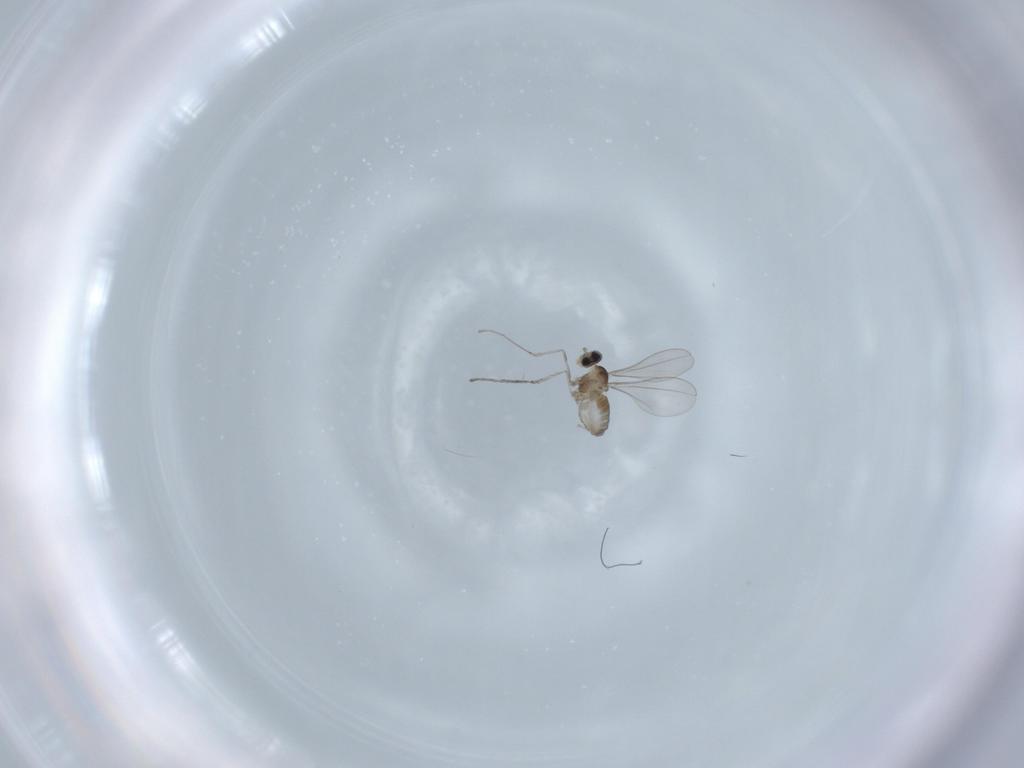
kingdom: Animalia
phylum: Arthropoda
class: Insecta
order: Diptera
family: Cecidomyiidae
